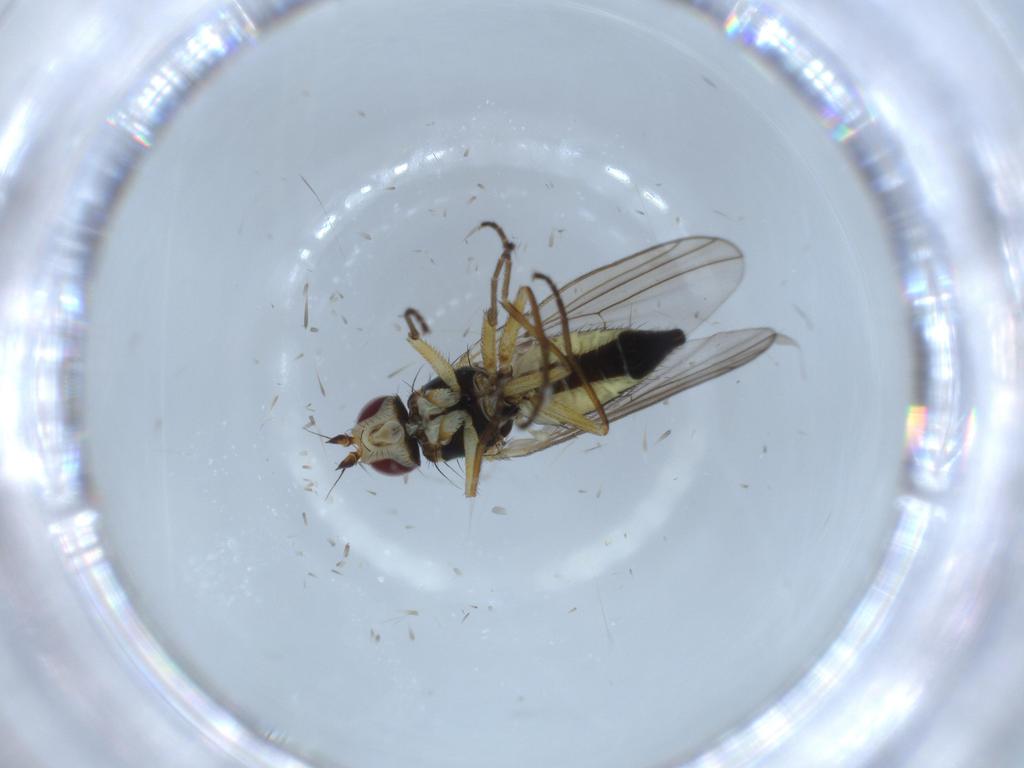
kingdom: Animalia
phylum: Arthropoda
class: Insecta
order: Diptera
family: Agromyzidae
